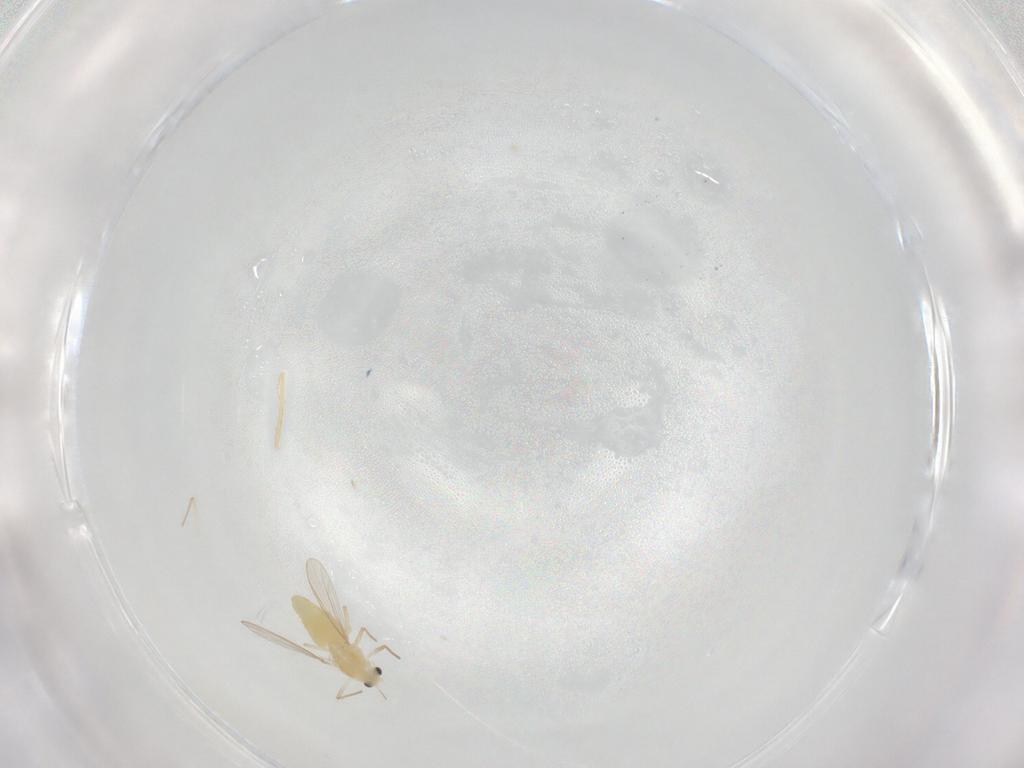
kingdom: Animalia
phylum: Arthropoda
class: Insecta
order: Diptera
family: Chironomidae
